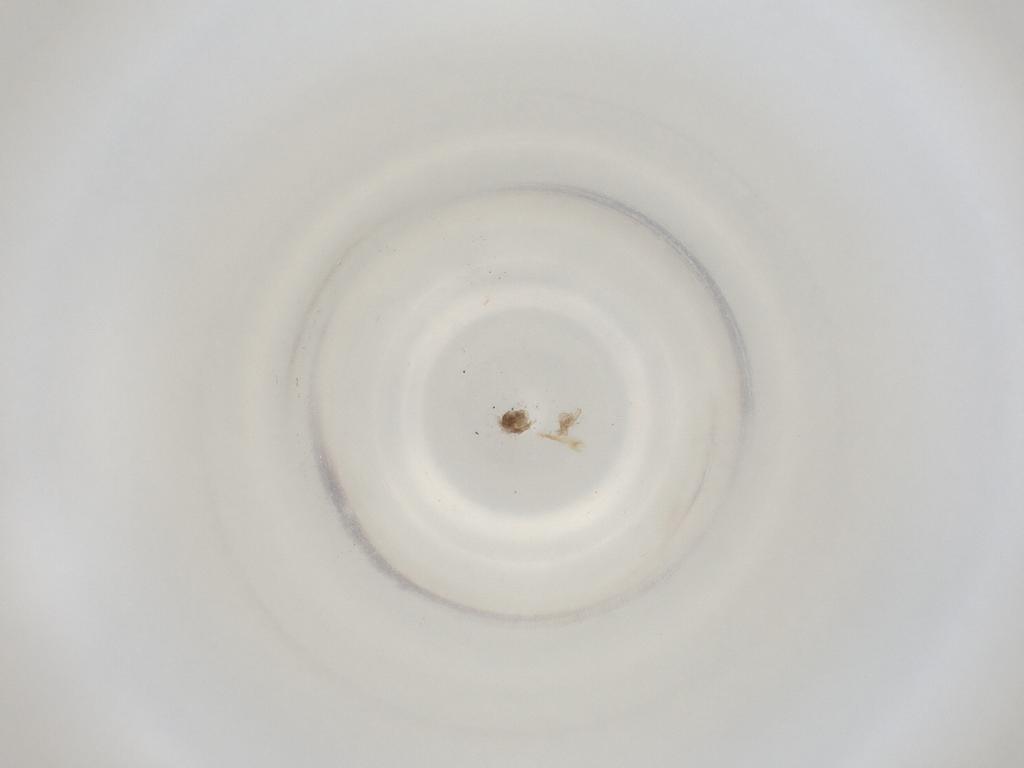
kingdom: Animalia
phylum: Arthropoda
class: Insecta
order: Diptera
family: Cecidomyiidae
